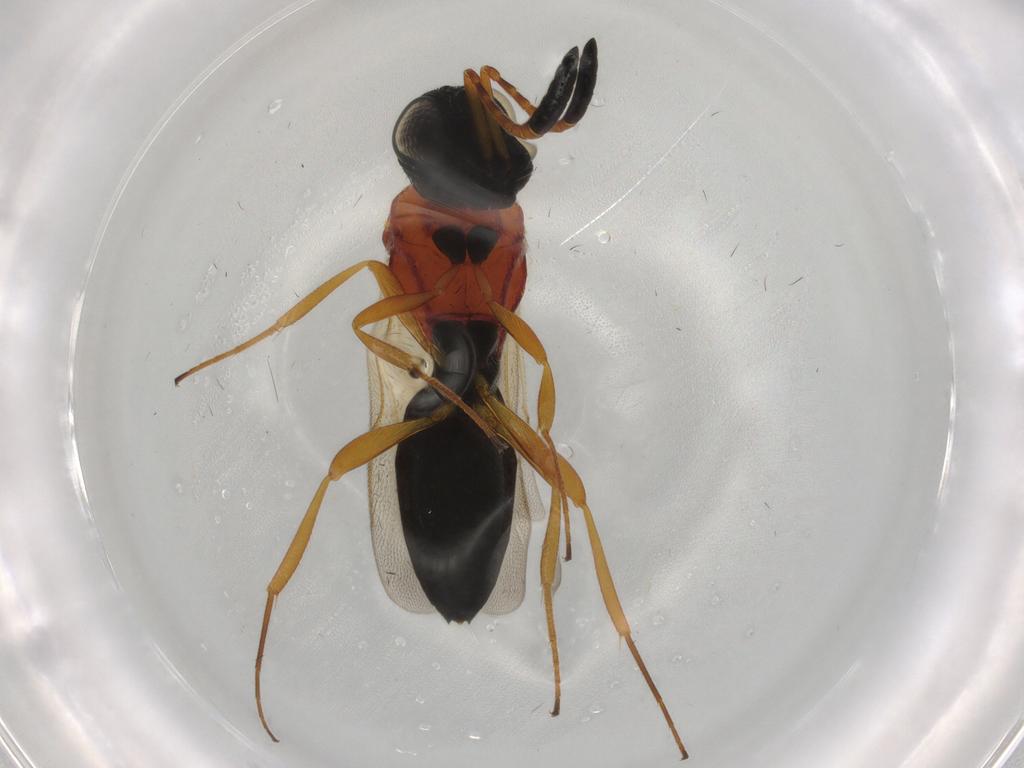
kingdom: Animalia
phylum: Arthropoda
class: Insecta
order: Hymenoptera
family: Scelionidae
